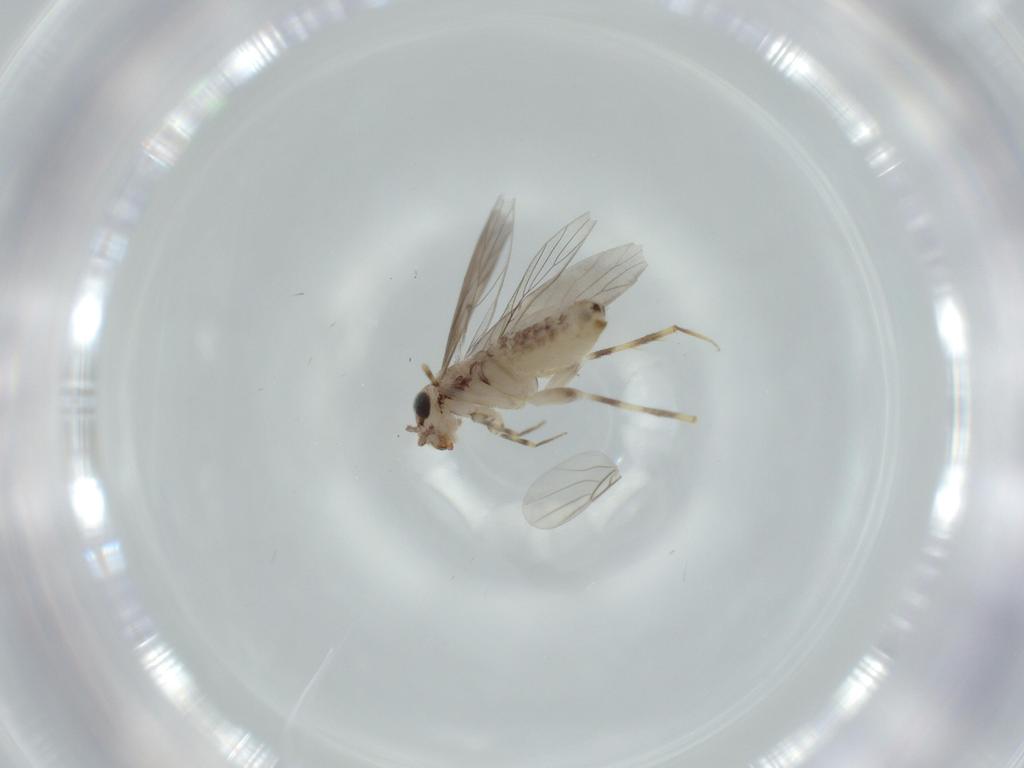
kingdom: Animalia
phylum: Arthropoda
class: Insecta
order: Psocodea
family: Lepidopsocidae
